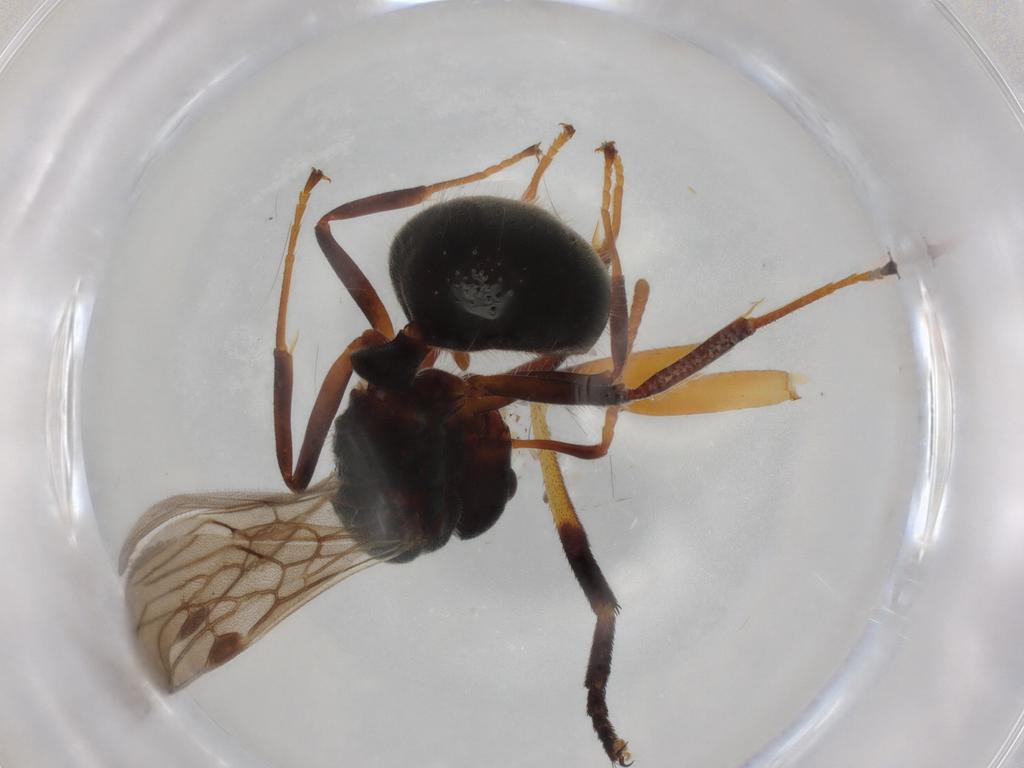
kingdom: Animalia
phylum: Arthropoda
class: Insecta
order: Hymenoptera
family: Formicidae
